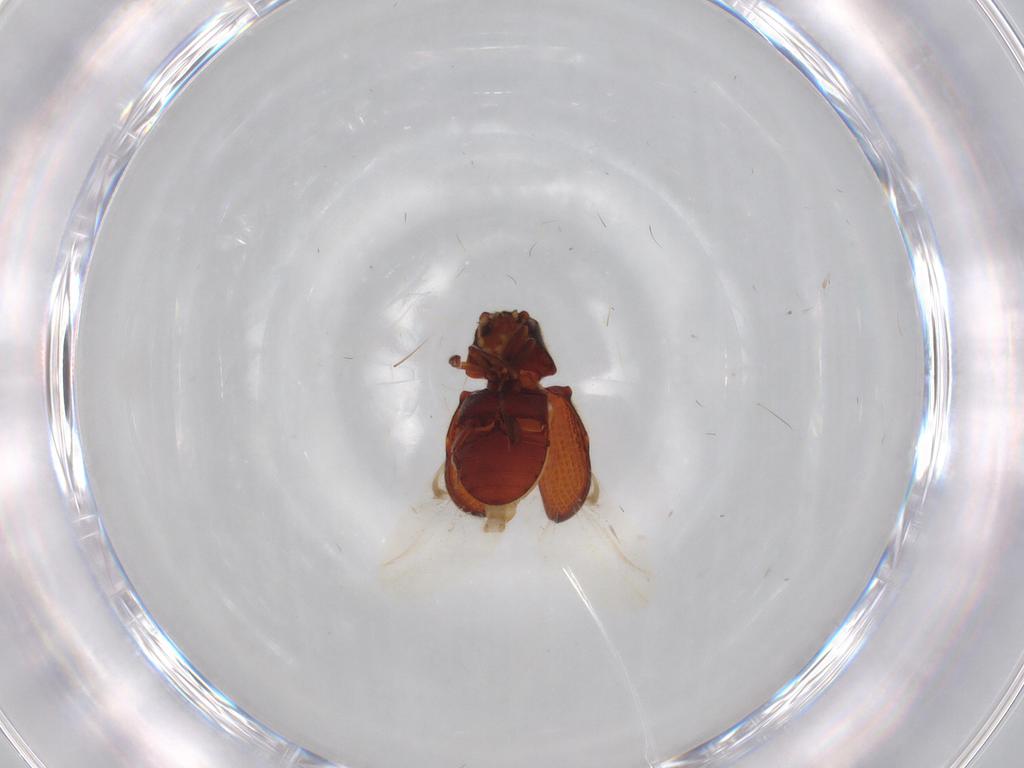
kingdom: Animalia
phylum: Arthropoda
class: Insecta
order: Coleoptera
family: Ptinidae
